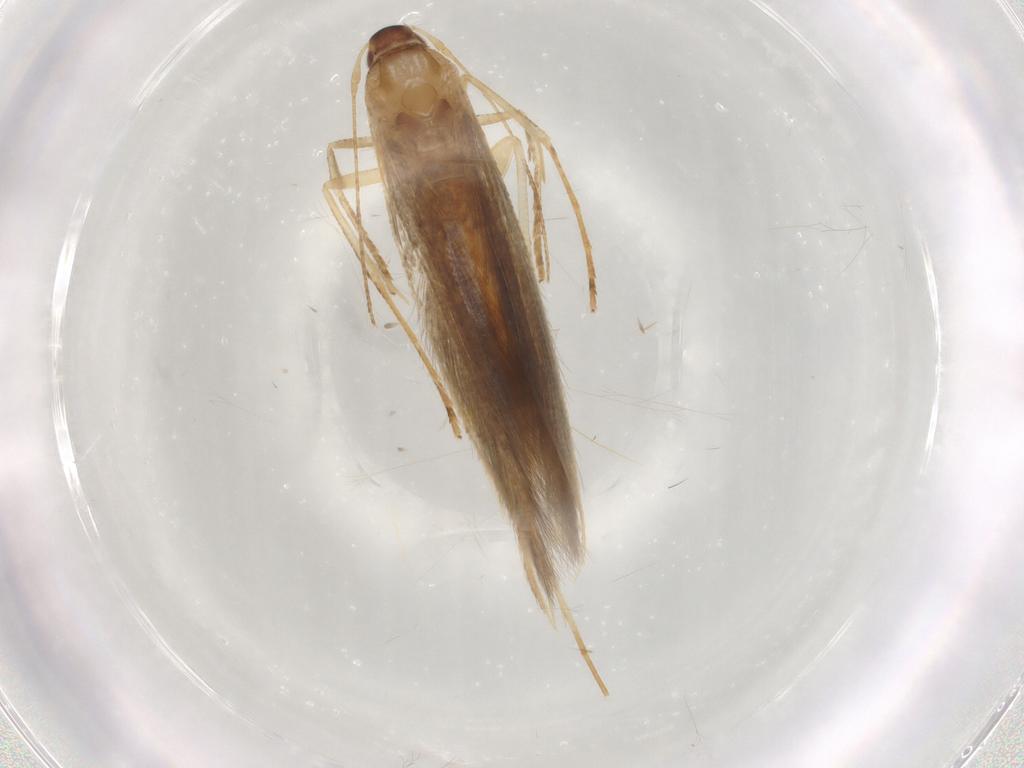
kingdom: Animalia
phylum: Arthropoda
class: Insecta
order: Lepidoptera
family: Cosmopterigidae
